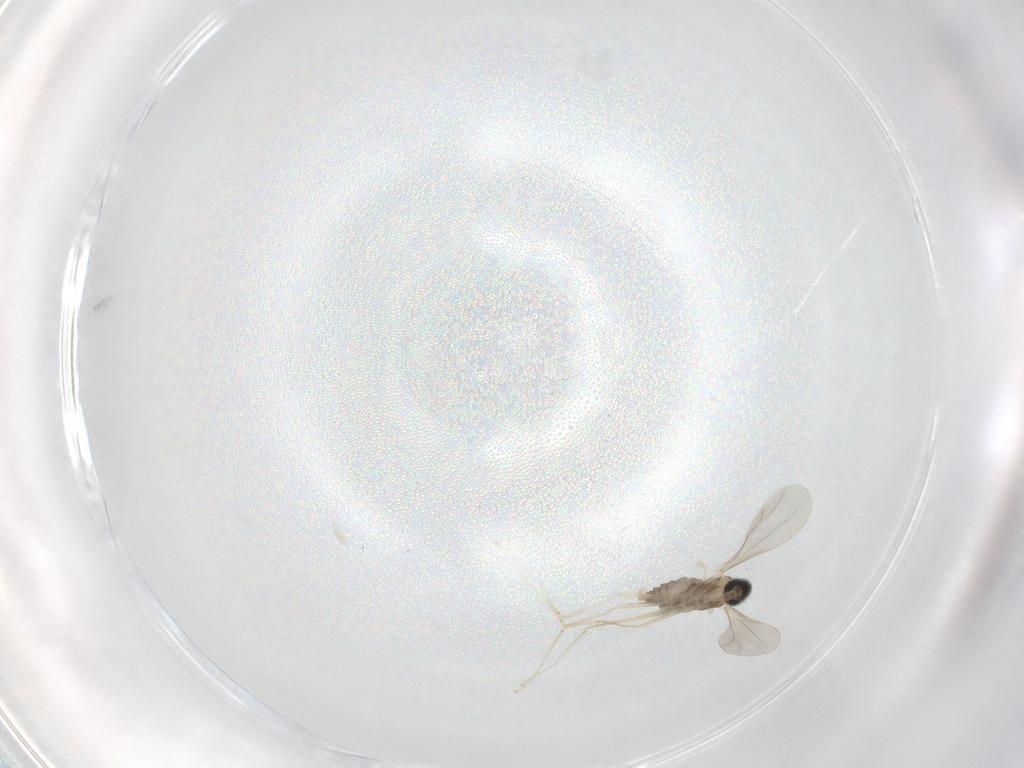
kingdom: Animalia
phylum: Arthropoda
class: Insecta
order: Diptera
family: Cecidomyiidae
